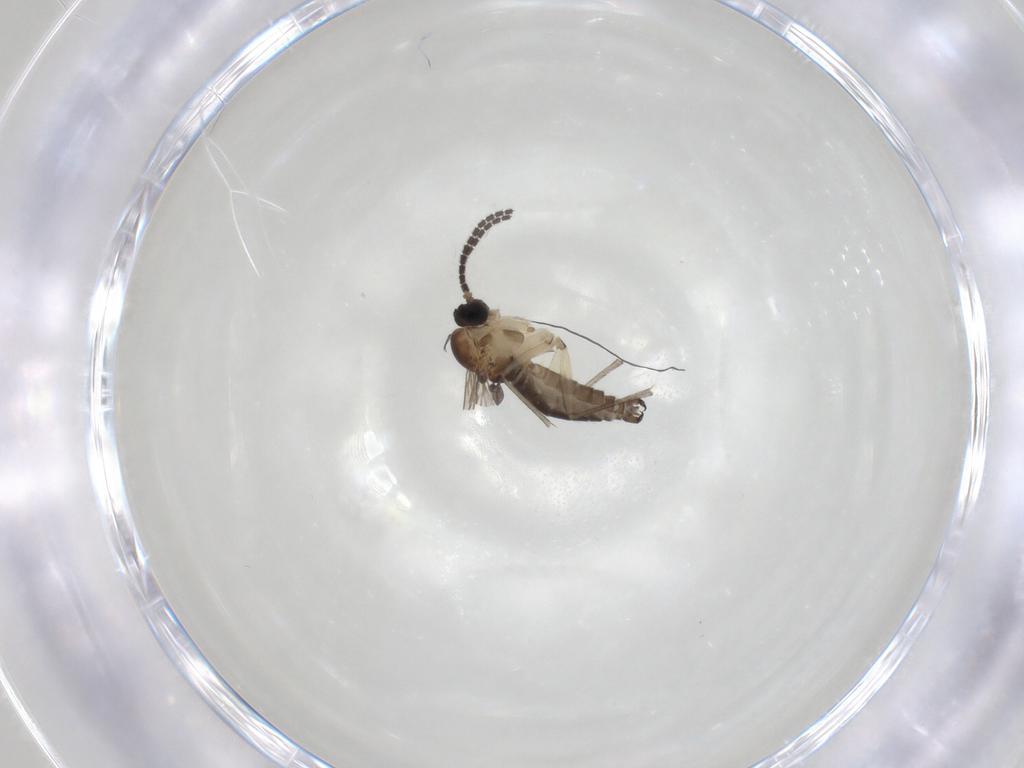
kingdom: Animalia
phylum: Arthropoda
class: Insecta
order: Diptera
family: Sciaridae
